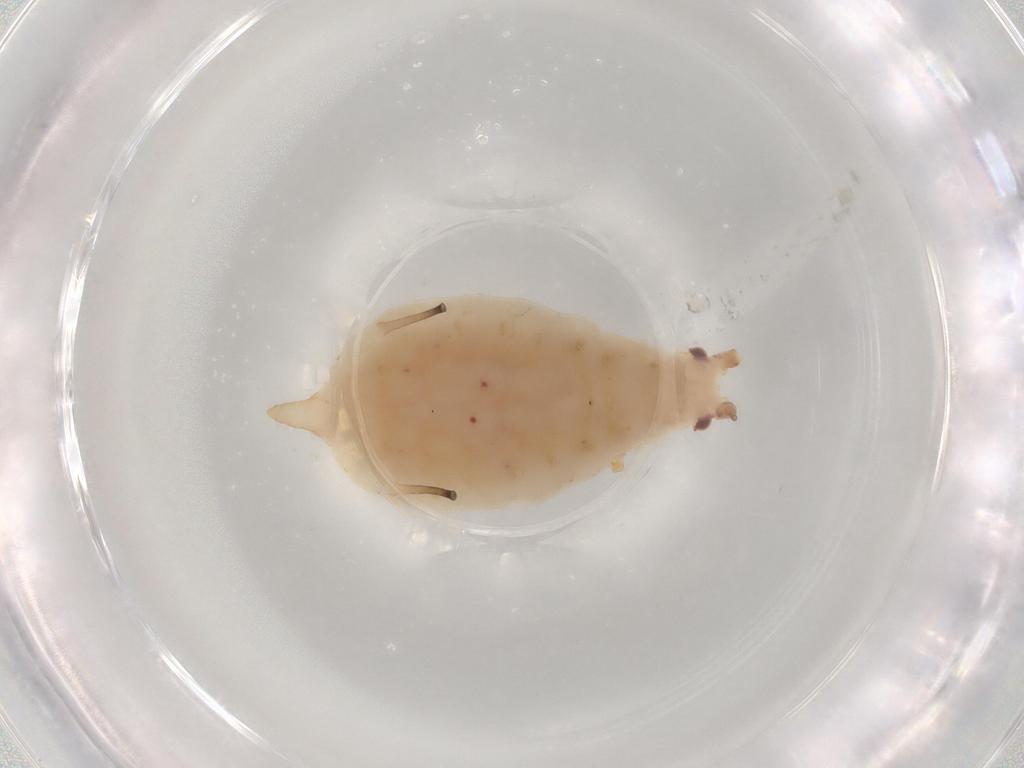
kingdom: Animalia
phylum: Arthropoda
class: Insecta
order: Hemiptera
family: Aphididae
